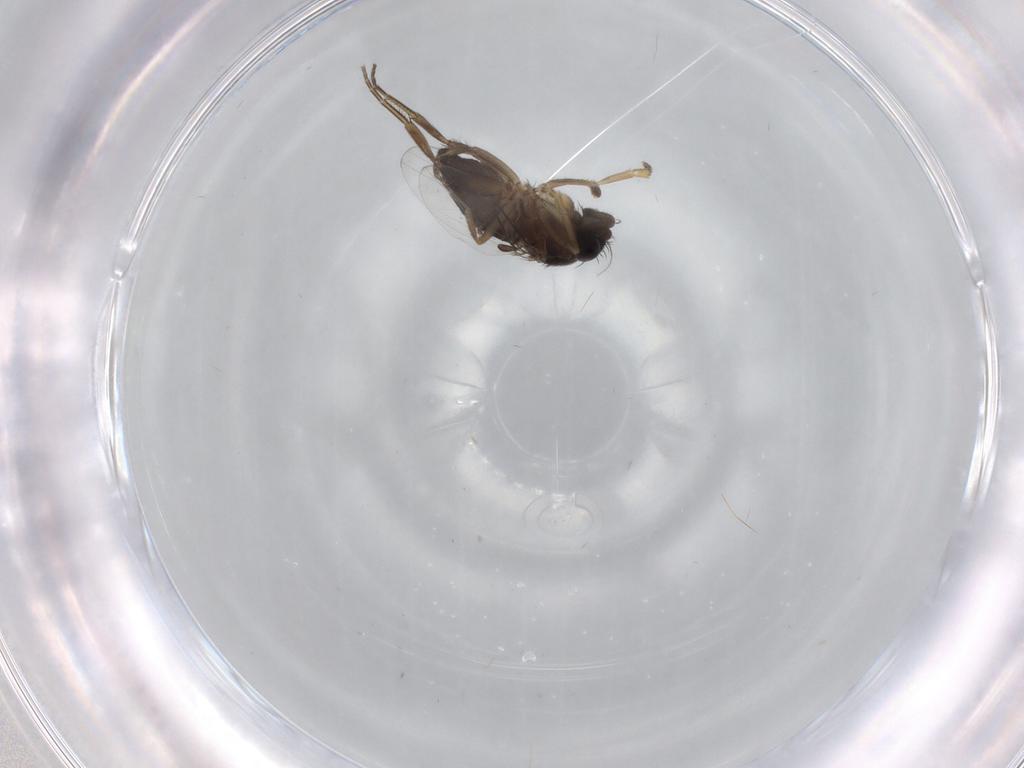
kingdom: Animalia
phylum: Arthropoda
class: Insecta
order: Diptera
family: Phoridae
